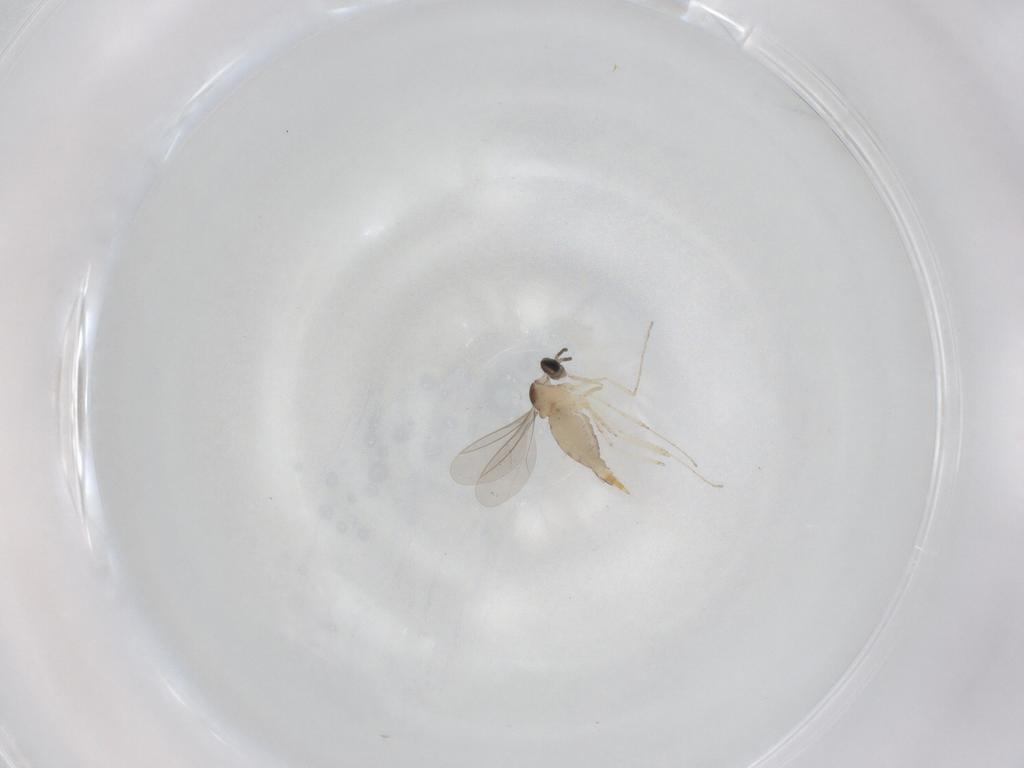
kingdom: Animalia
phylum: Arthropoda
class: Insecta
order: Diptera
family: Cecidomyiidae
